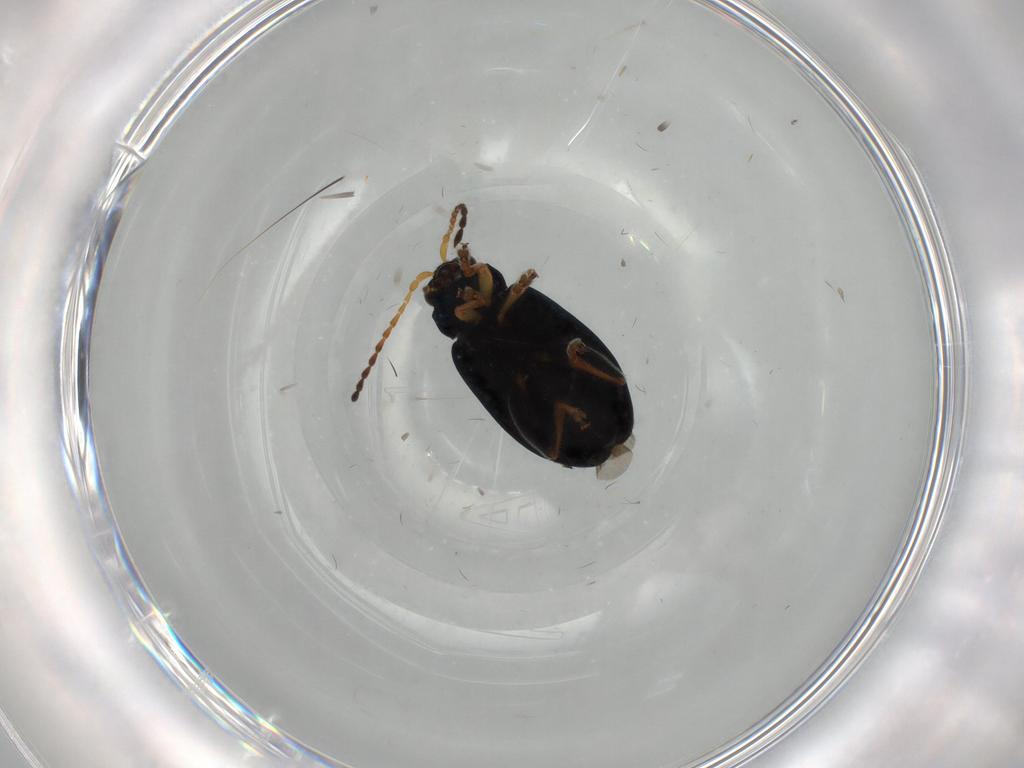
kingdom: Animalia
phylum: Arthropoda
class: Insecta
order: Coleoptera
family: Chrysomelidae
